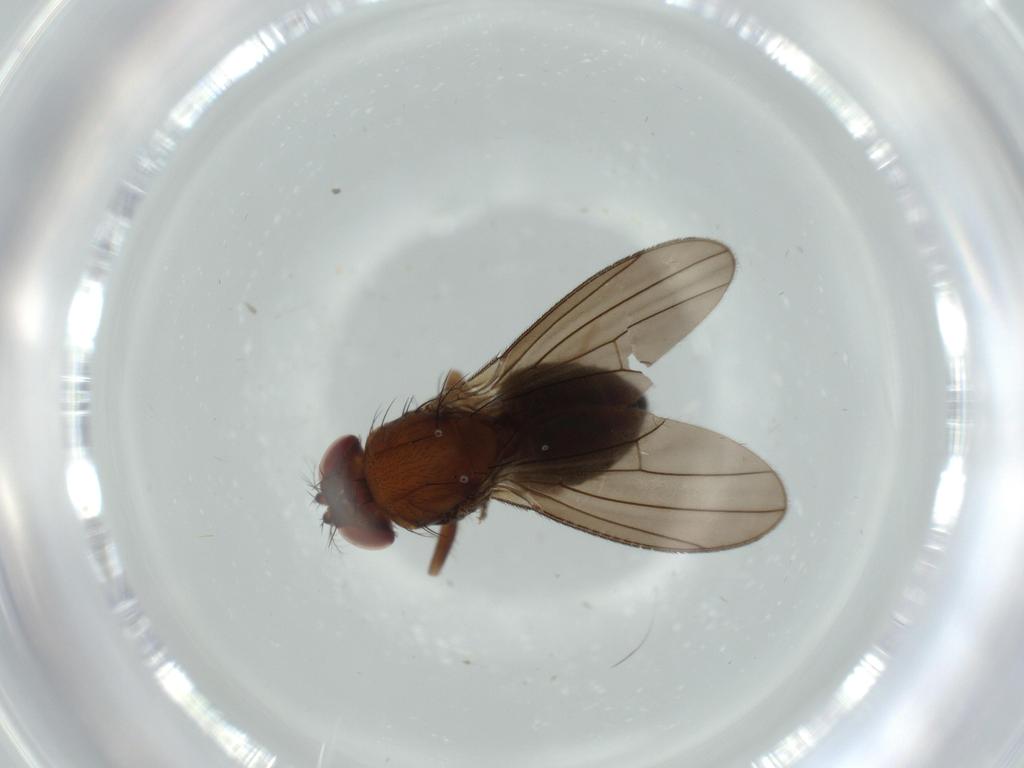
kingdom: Animalia
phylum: Arthropoda
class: Insecta
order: Diptera
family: Drosophilidae
